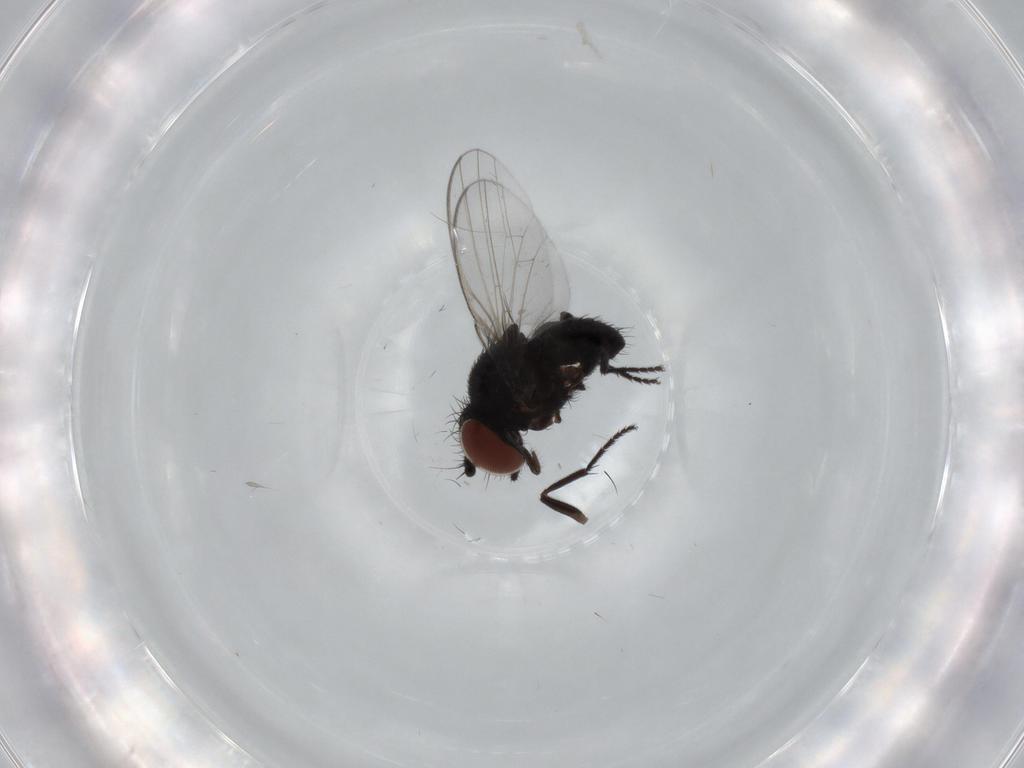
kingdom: Animalia
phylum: Arthropoda
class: Insecta
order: Diptera
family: Milichiidae
